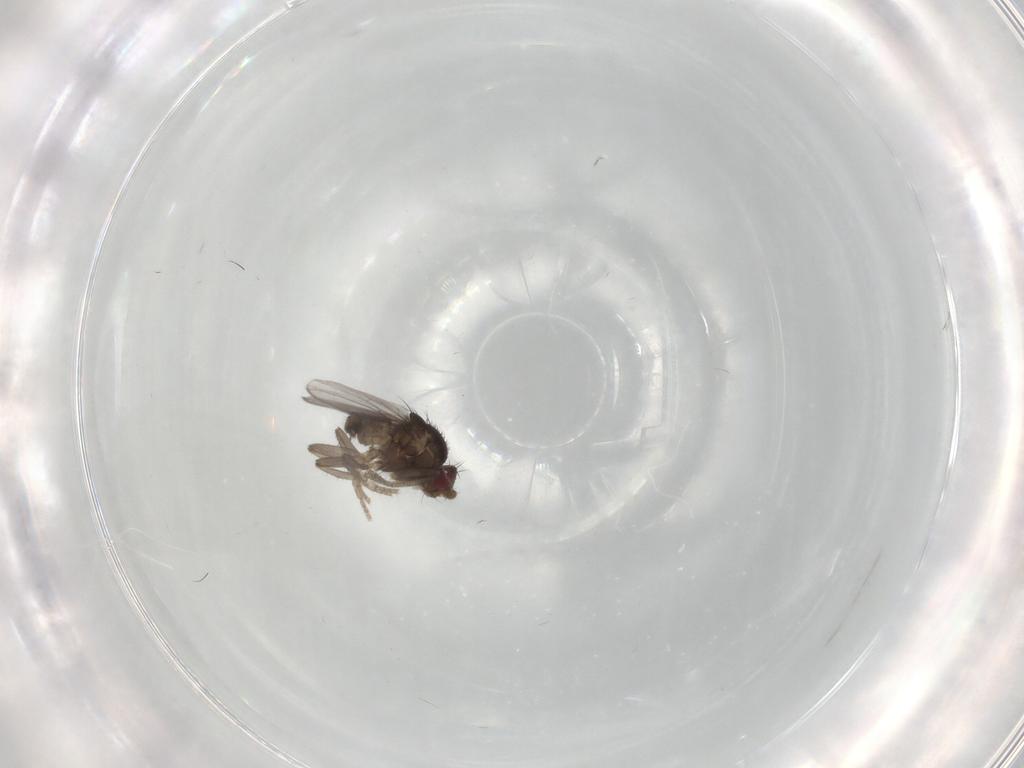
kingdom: Animalia
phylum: Arthropoda
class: Insecta
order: Diptera
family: Sphaeroceridae
